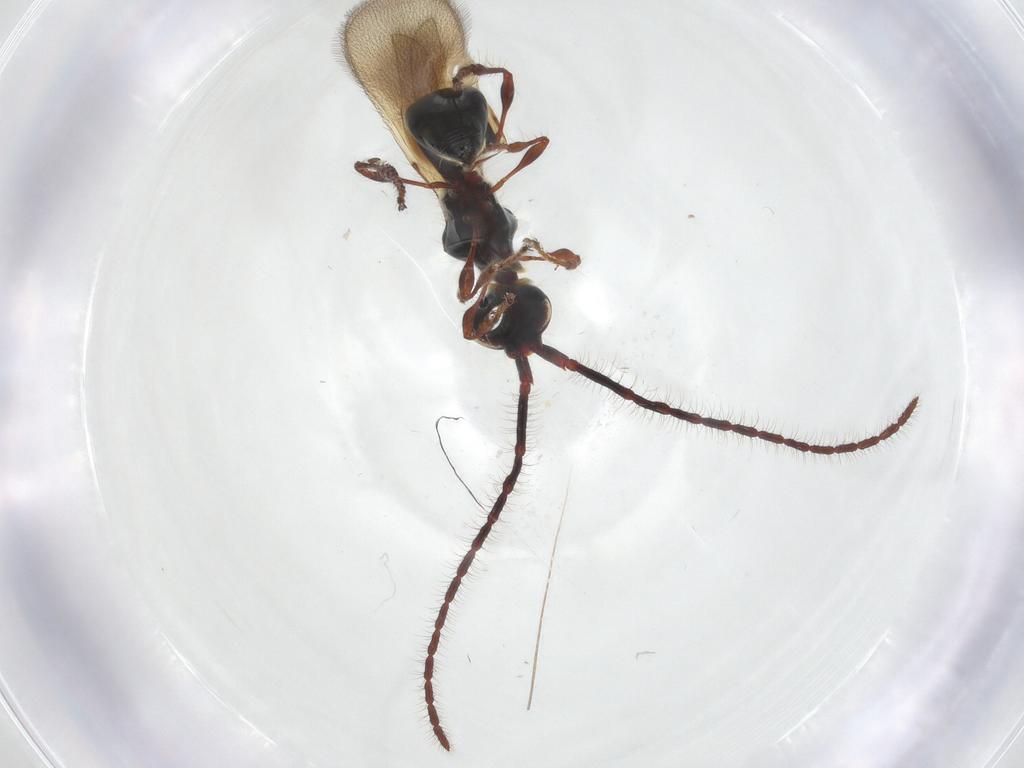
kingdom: Animalia
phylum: Arthropoda
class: Insecta
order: Hymenoptera
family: Diapriidae
